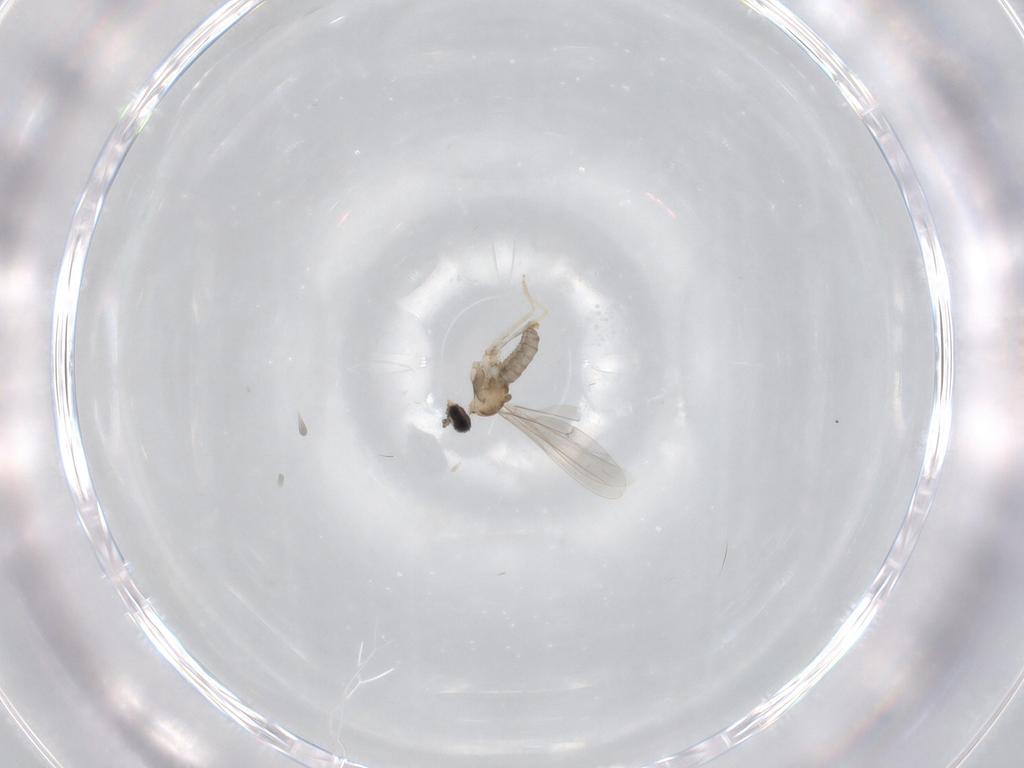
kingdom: Animalia
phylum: Arthropoda
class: Insecta
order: Diptera
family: Cecidomyiidae
